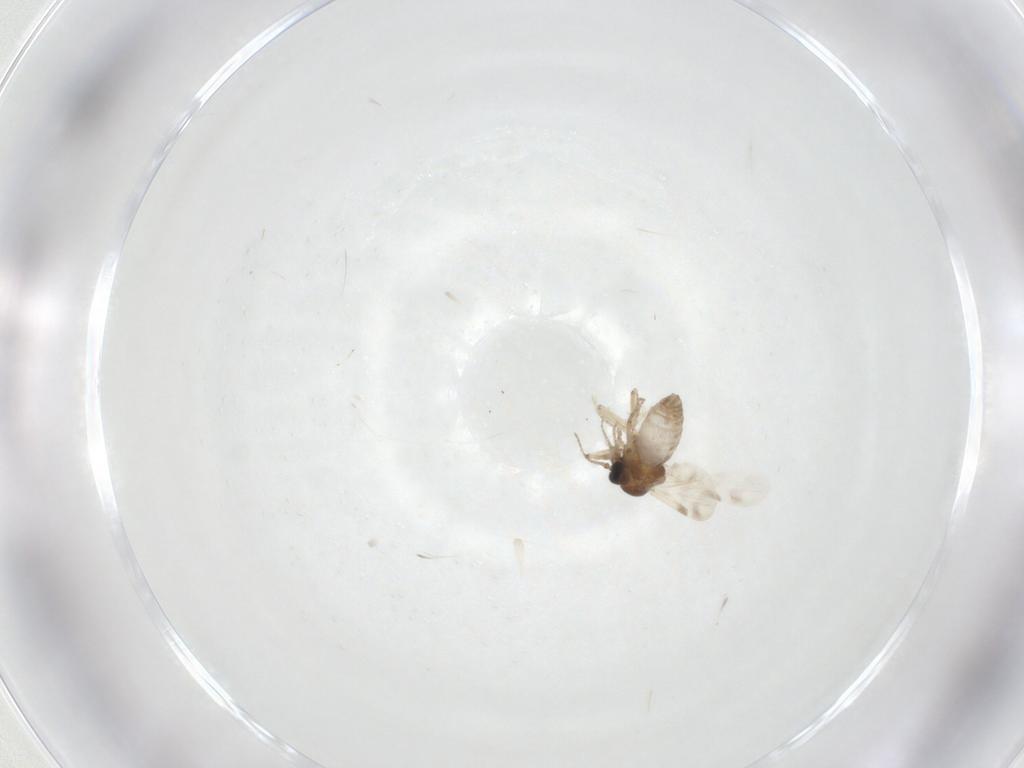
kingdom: Animalia
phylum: Arthropoda
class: Insecta
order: Diptera
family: Ceratopogonidae
